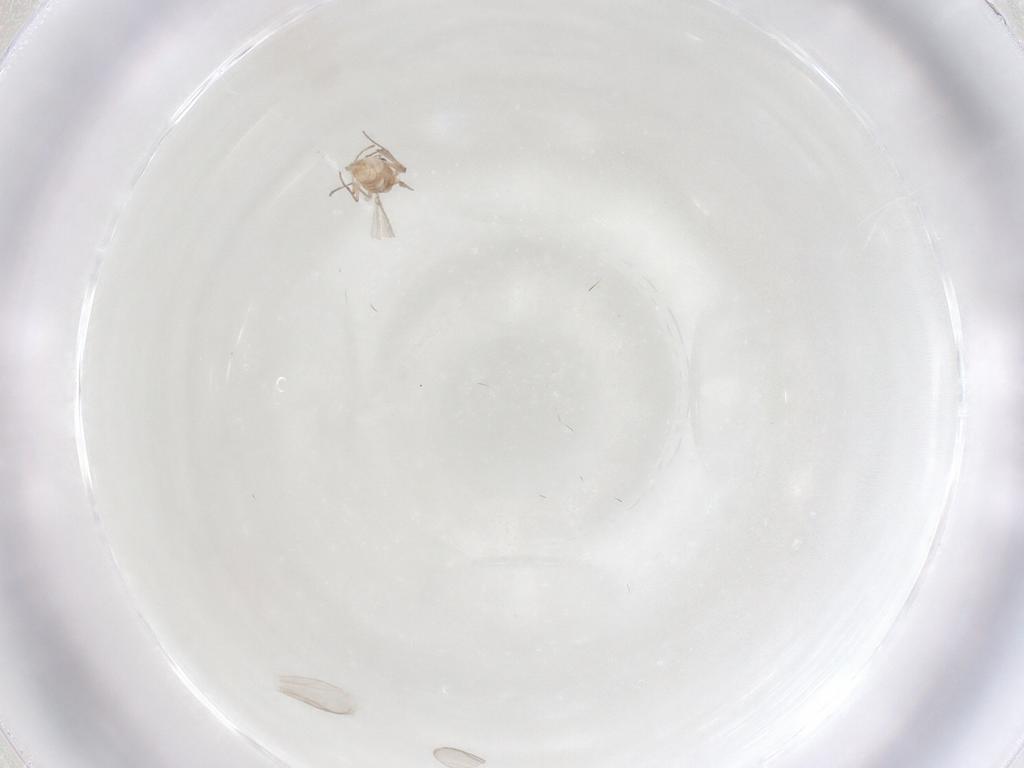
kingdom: Animalia
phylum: Arthropoda
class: Insecta
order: Diptera
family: Chironomidae
